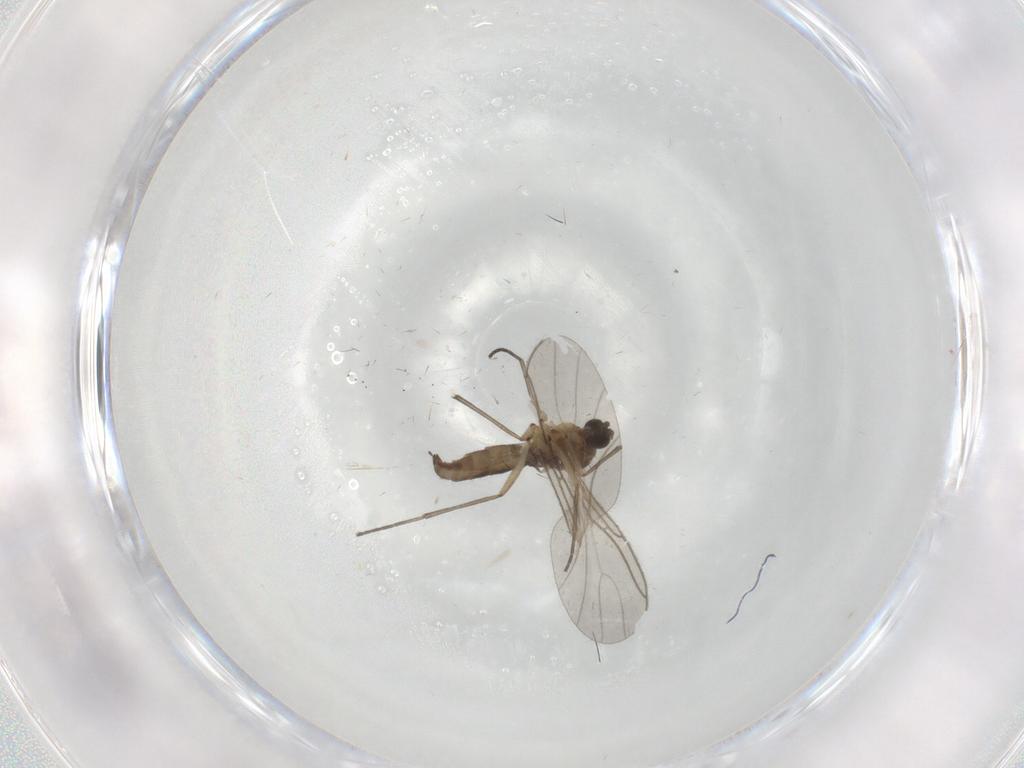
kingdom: Animalia
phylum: Arthropoda
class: Insecta
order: Diptera
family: Sciaridae
